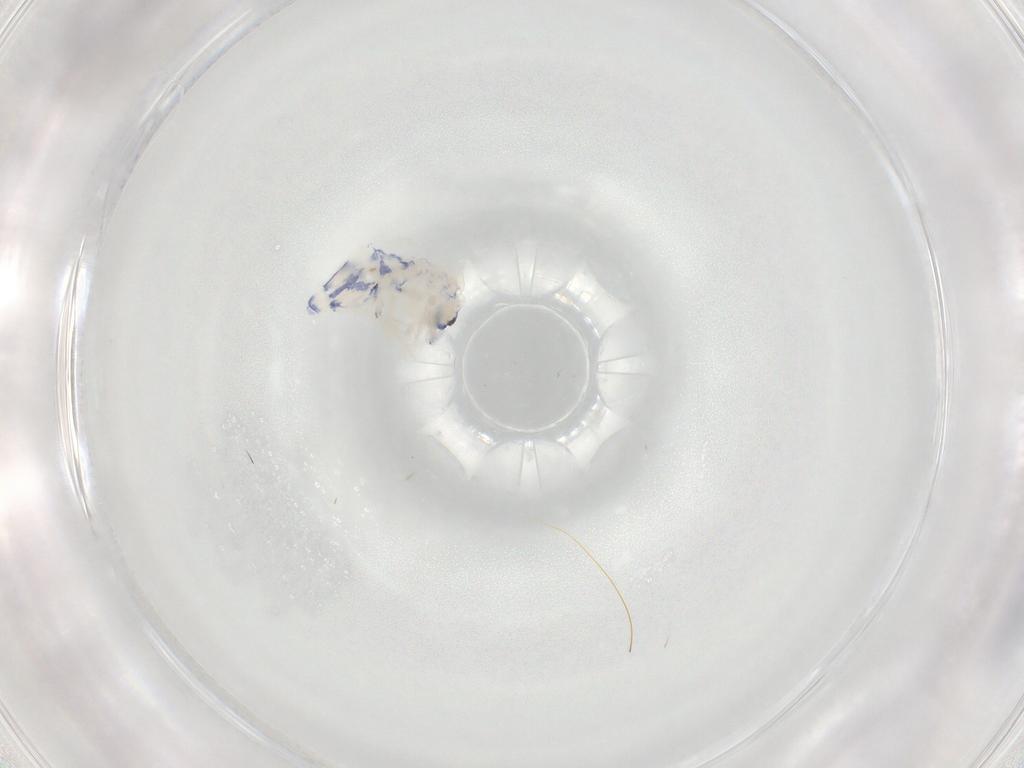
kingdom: Animalia
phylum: Arthropoda
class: Collembola
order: Entomobryomorpha
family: Entomobryidae
